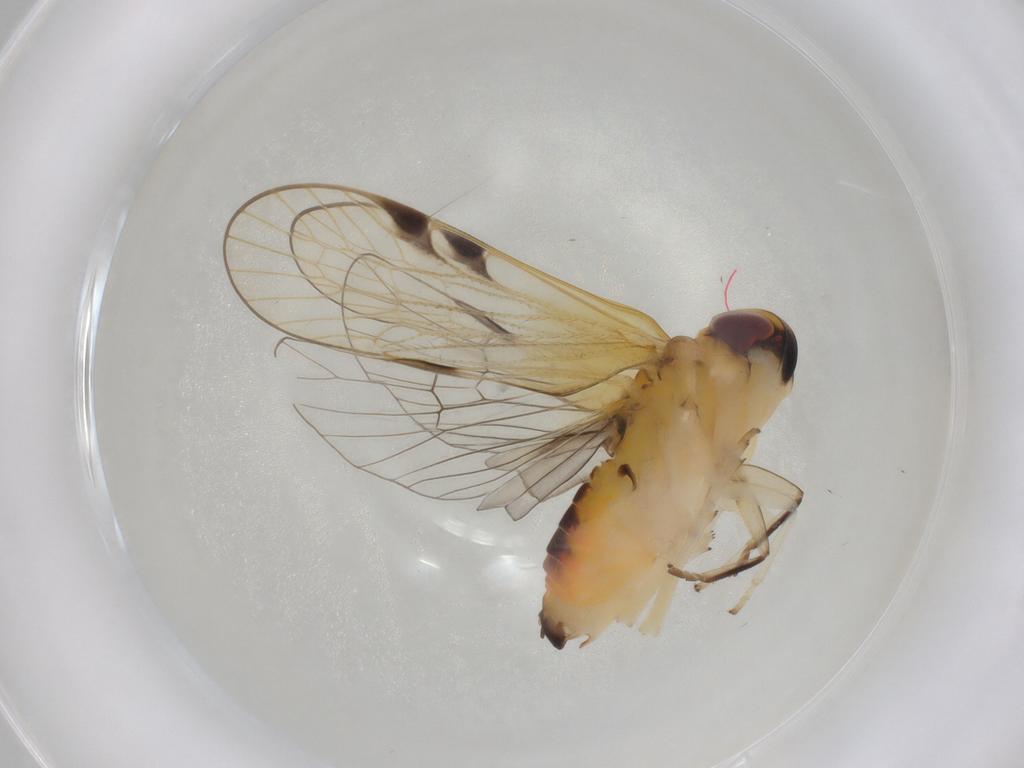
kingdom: Animalia
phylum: Arthropoda
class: Insecta
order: Hemiptera
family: Cixiidae
